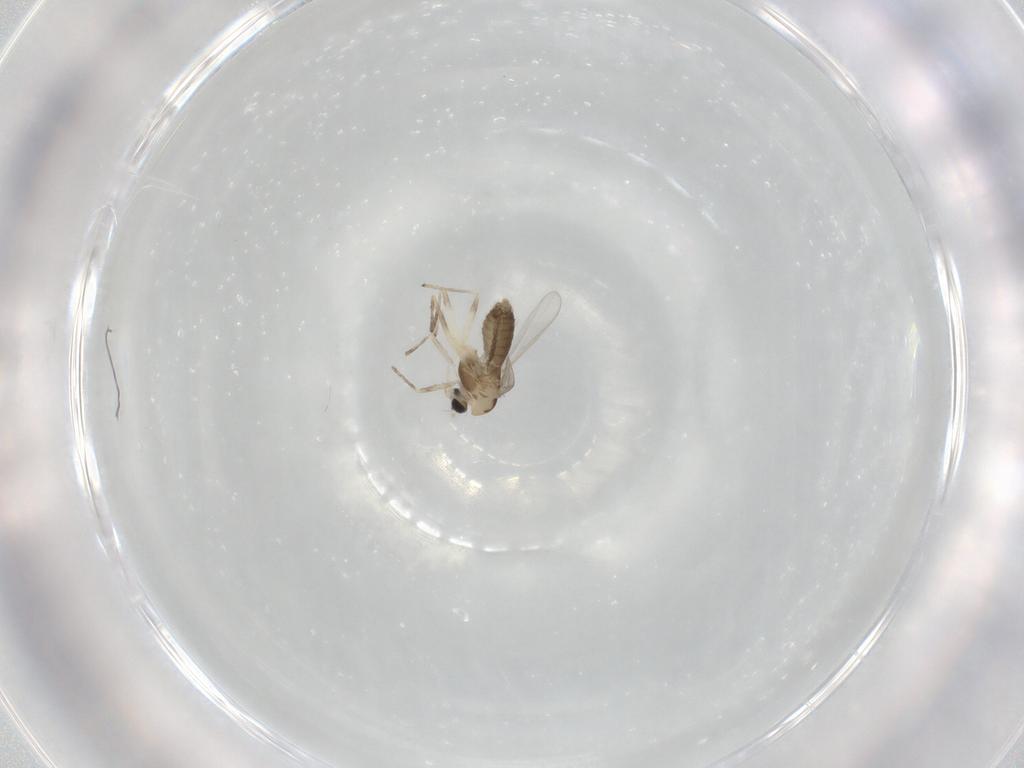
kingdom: Animalia
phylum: Arthropoda
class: Insecta
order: Diptera
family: Chironomidae
